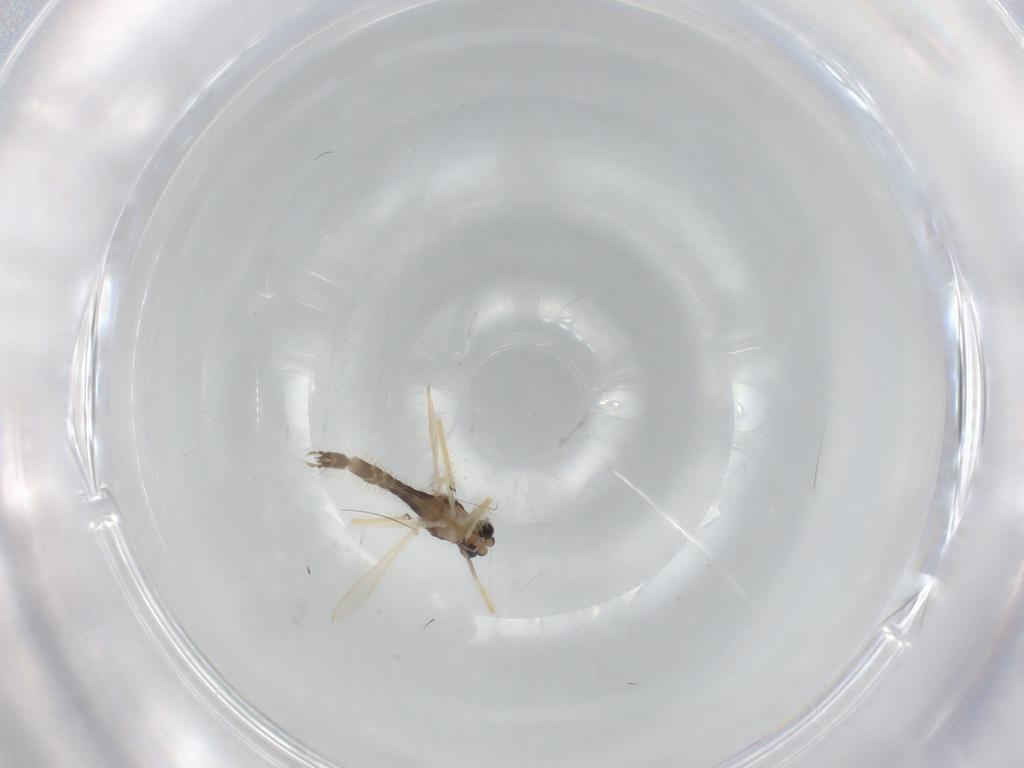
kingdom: Animalia
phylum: Arthropoda
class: Insecta
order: Diptera
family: Chironomidae
